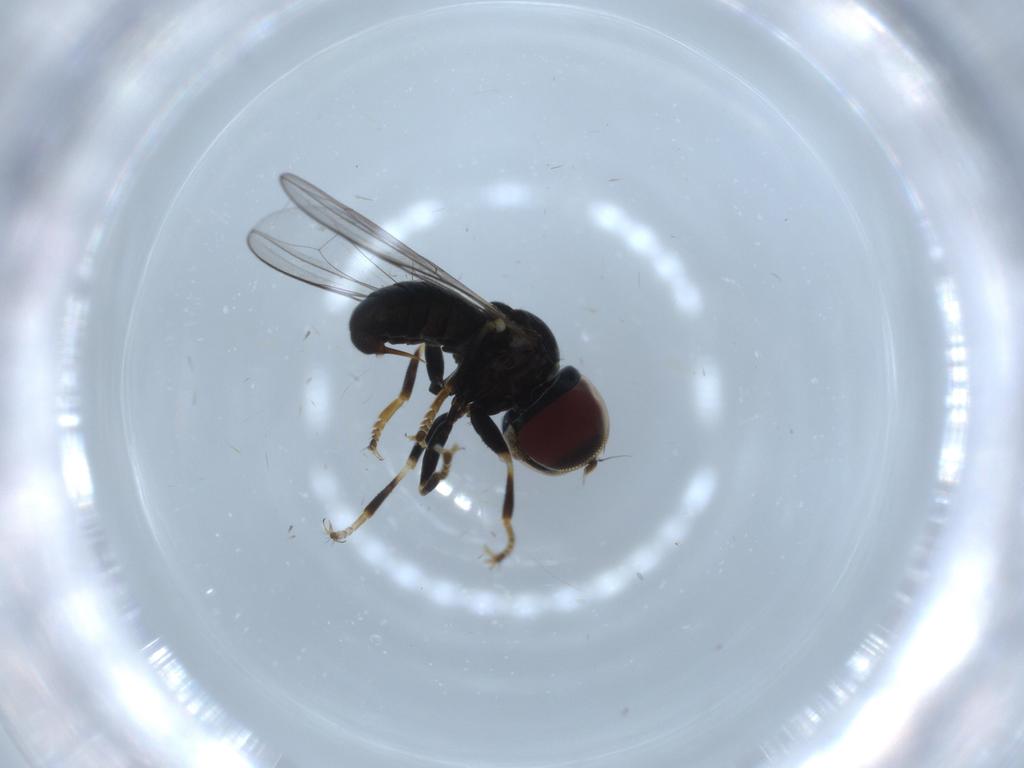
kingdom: Animalia
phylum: Arthropoda
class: Insecta
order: Diptera
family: Pipunculidae
